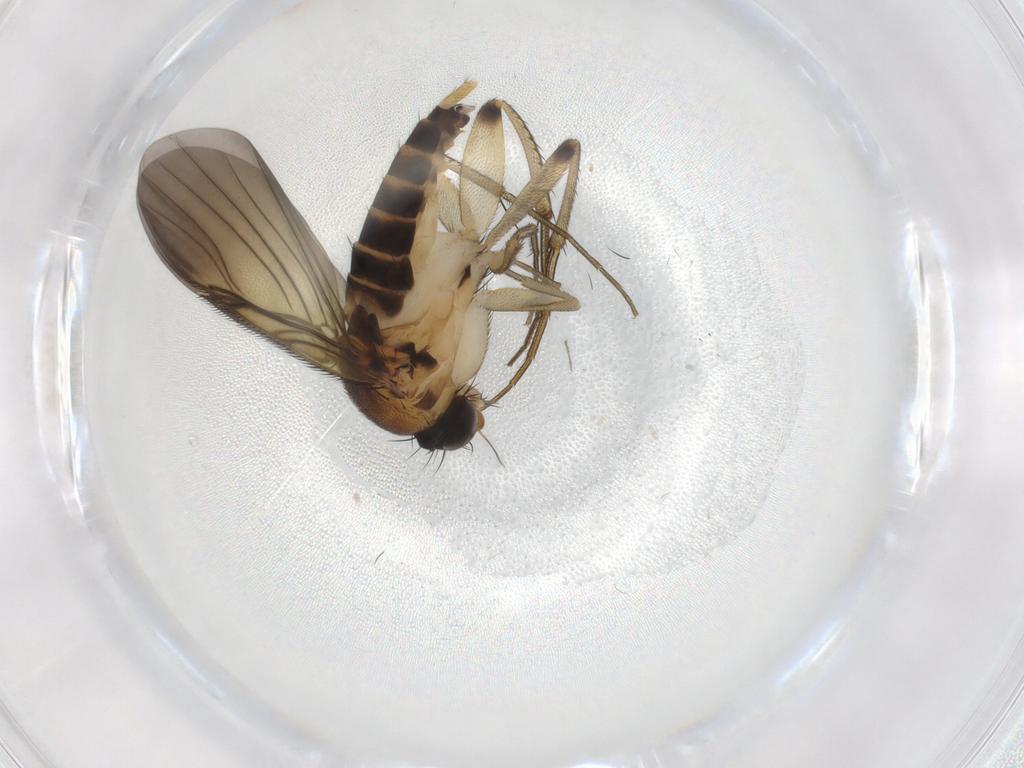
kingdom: Animalia
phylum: Arthropoda
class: Insecta
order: Diptera
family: Phoridae
